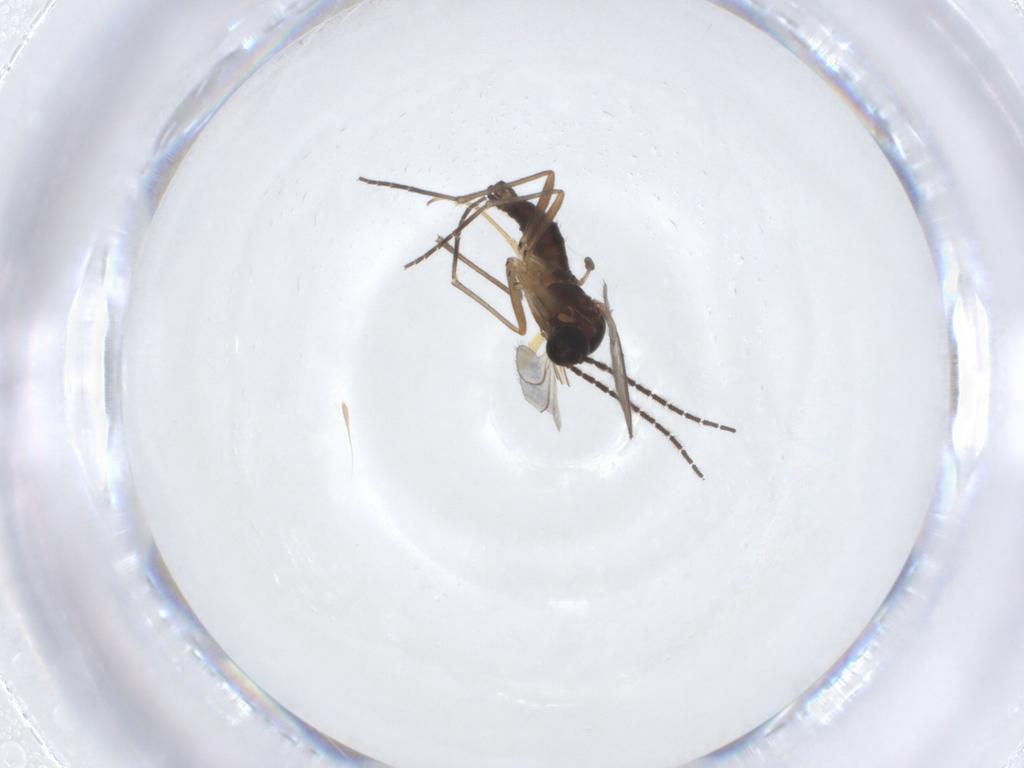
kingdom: Animalia
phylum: Arthropoda
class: Insecta
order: Diptera
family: Sciaridae
